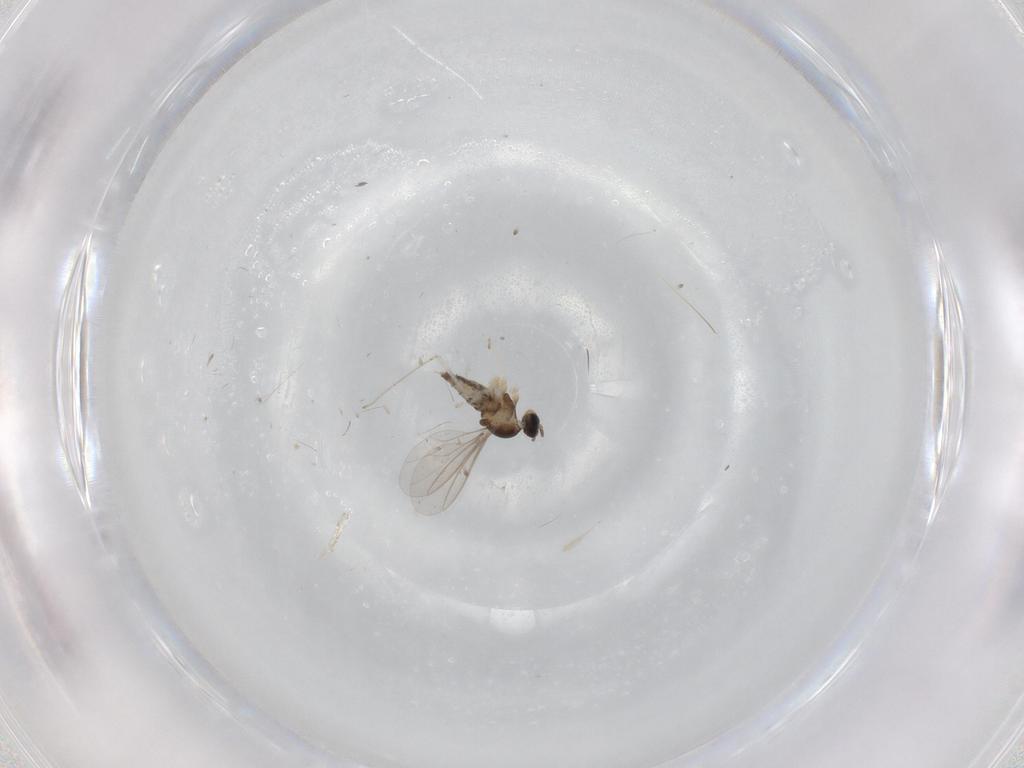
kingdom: Animalia
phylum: Arthropoda
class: Insecta
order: Diptera
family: Cecidomyiidae
